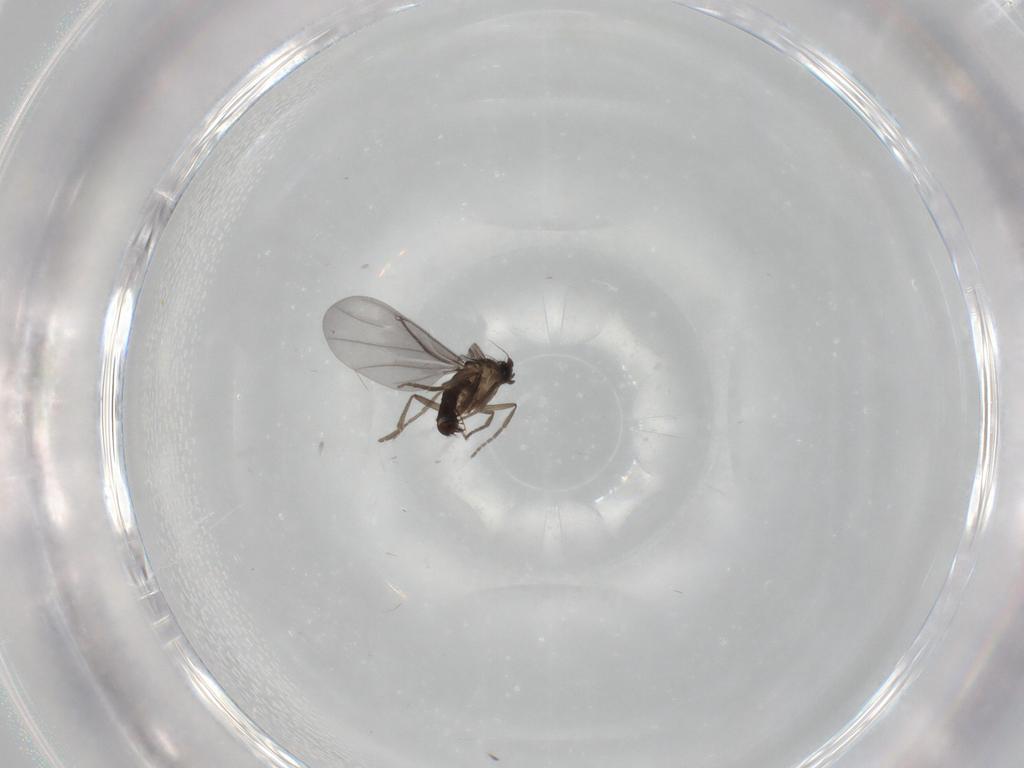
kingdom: Animalia
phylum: Arthropoda
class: Insecta
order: Diptera
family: Phoridae
